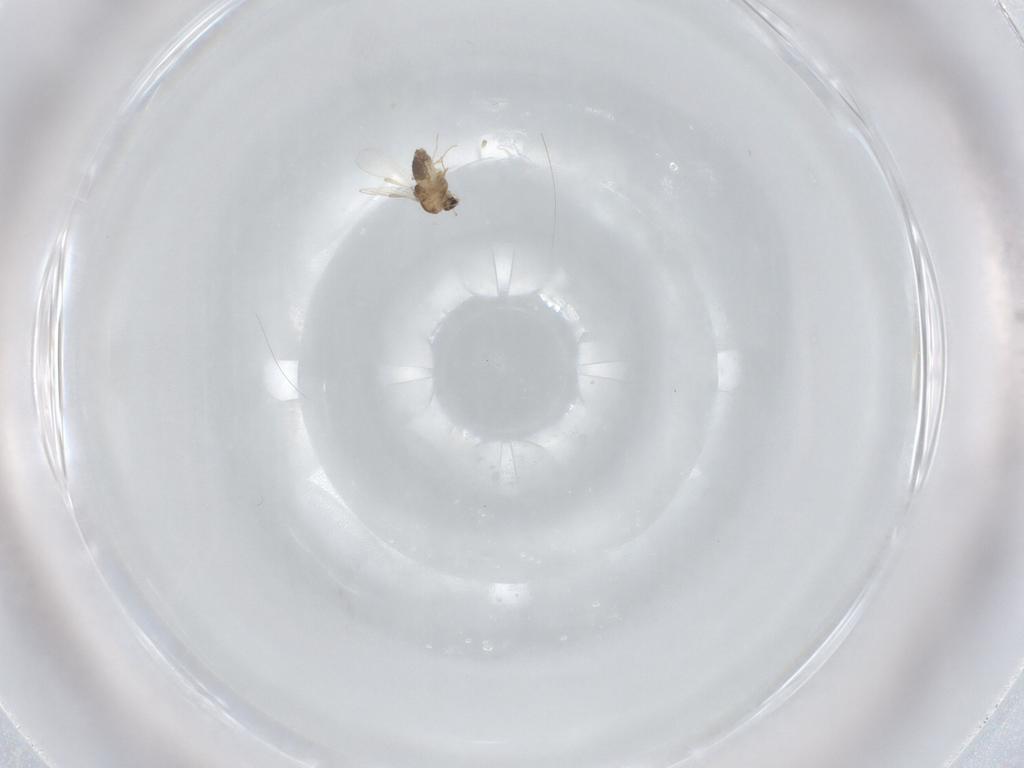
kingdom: Animalia
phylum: Arthropoda
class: Insecta
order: Diptera
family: Chironomidae
